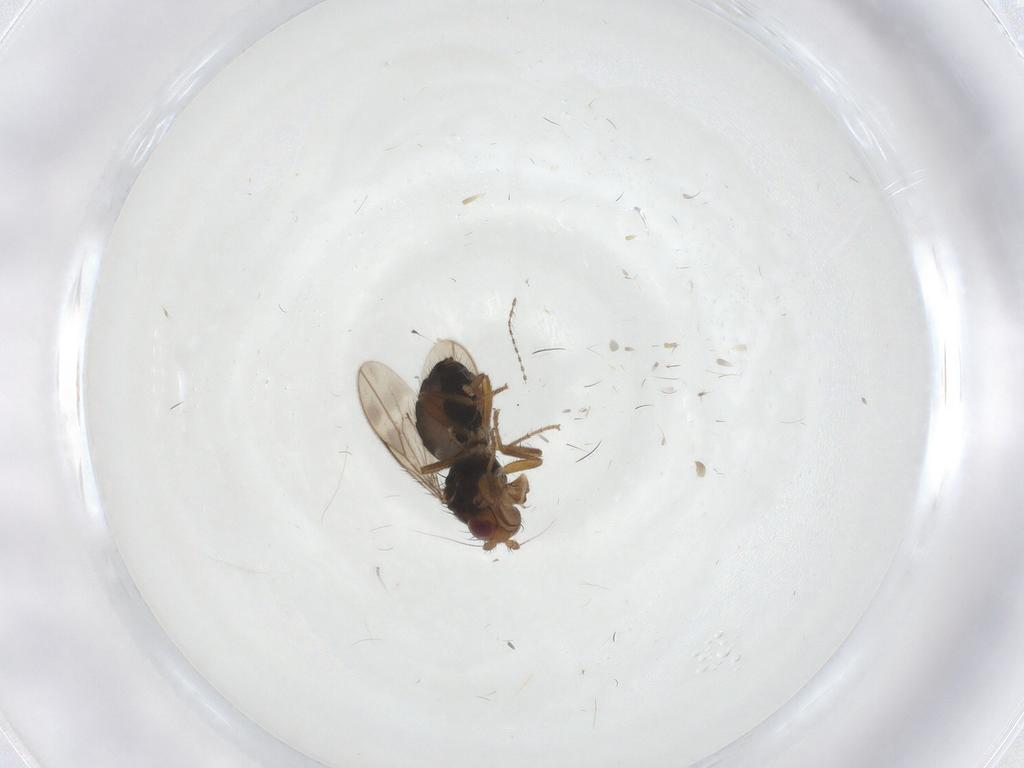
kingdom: Animalia
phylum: Arthropoda
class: Insecta
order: Diptera
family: Sphaeroceridae
